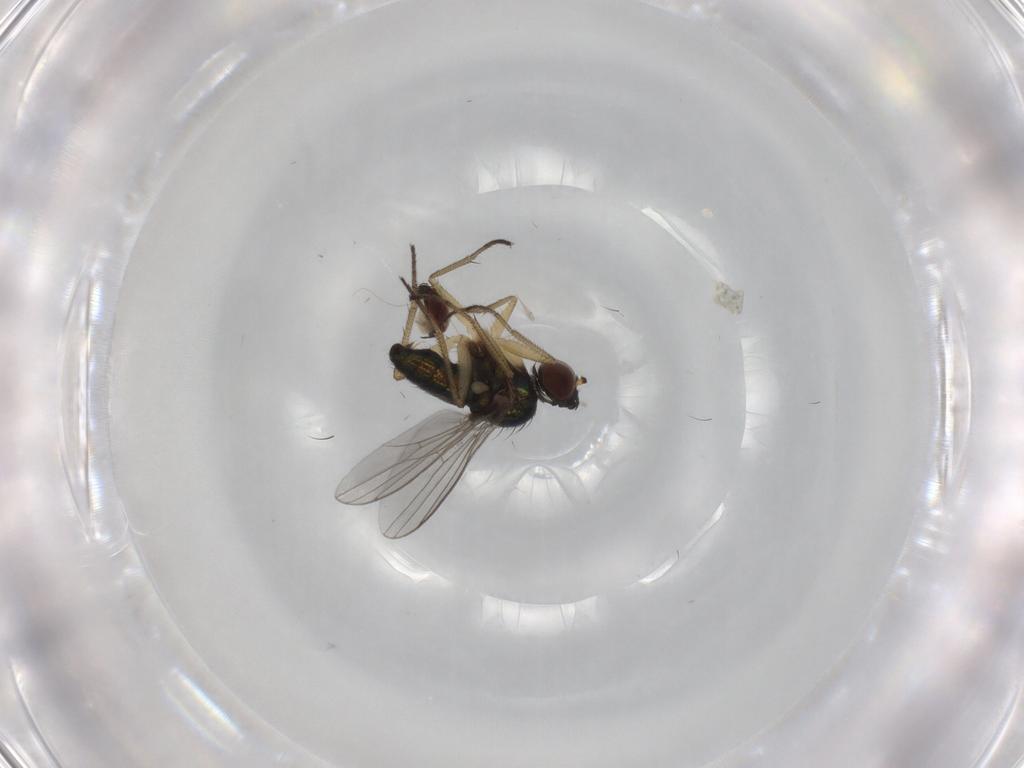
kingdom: Animalia
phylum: Arthropoda
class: Insecta
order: Diptera
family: Dolichopodidae
